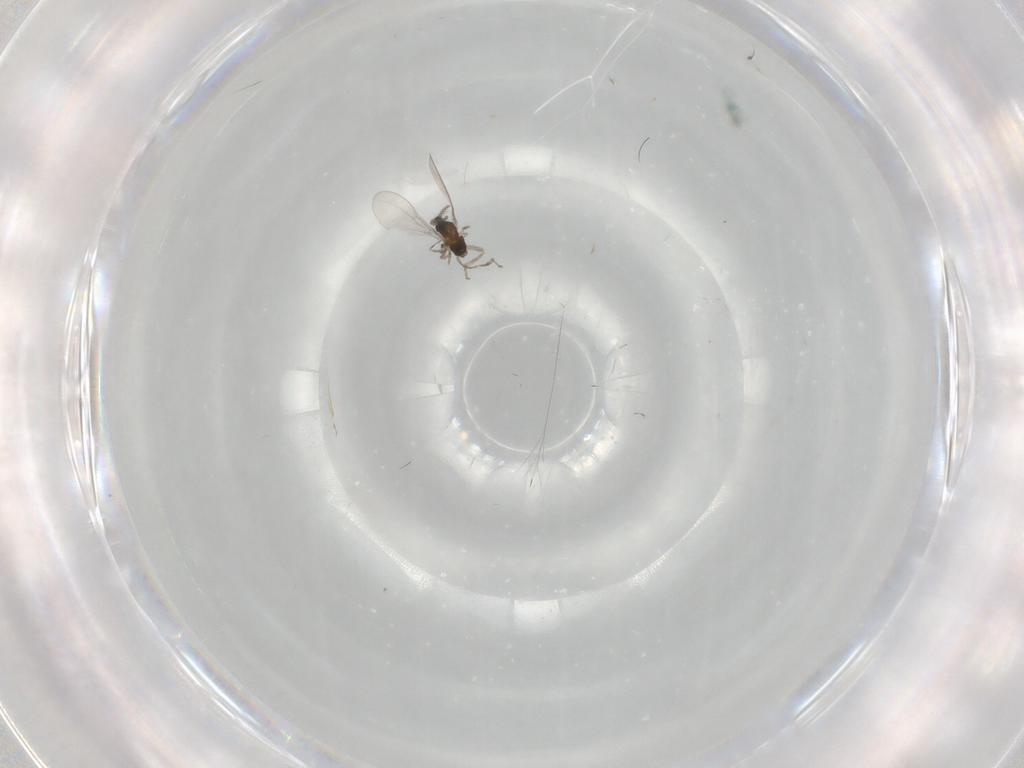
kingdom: Animalia
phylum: Arthropoda
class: Insecta
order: Diptera
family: Cecidomyiidae
